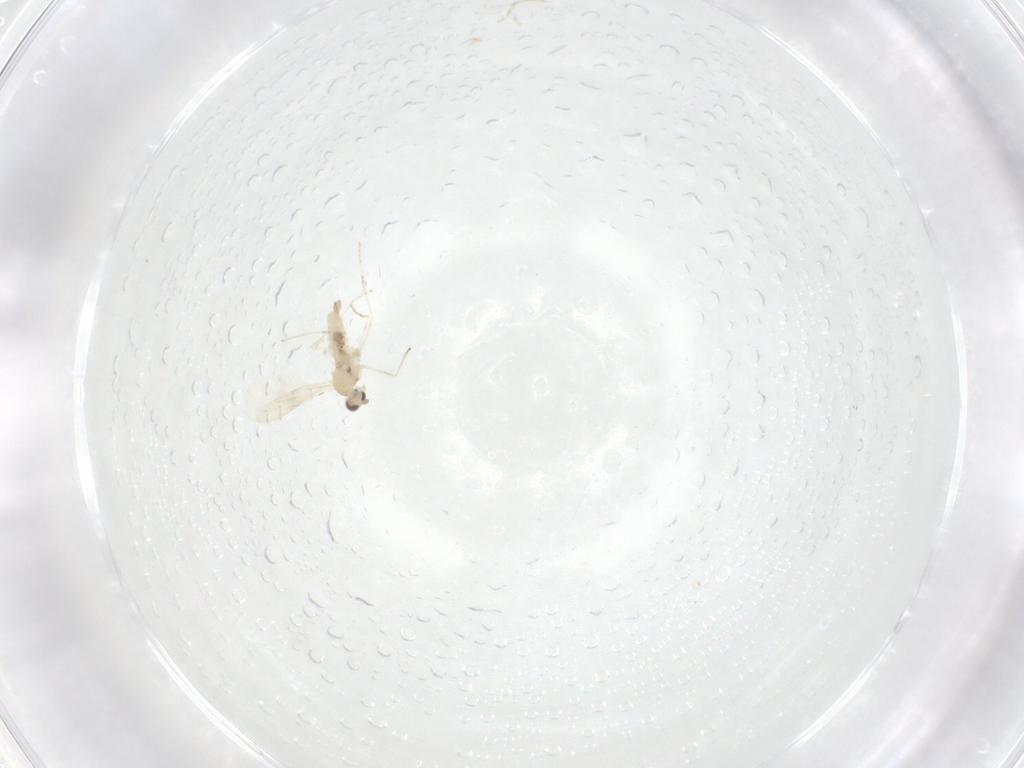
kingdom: Animalia
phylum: Arthropoda
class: Insecta
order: Diptera
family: Cecidomyiidae
